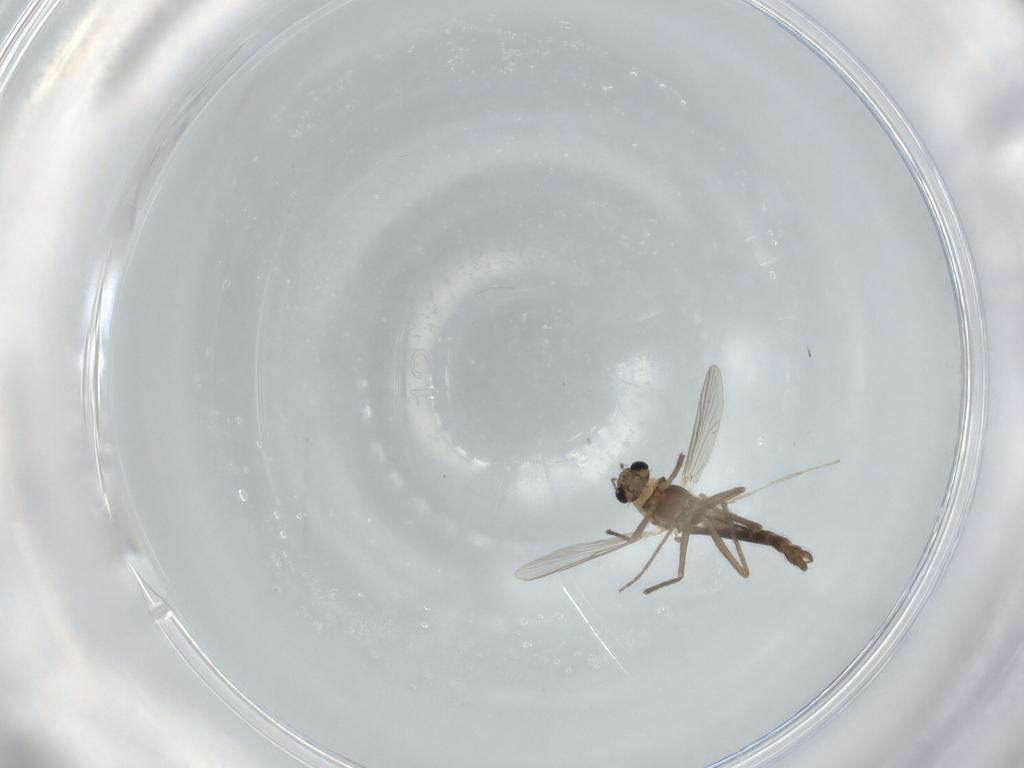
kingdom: Animalia
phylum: Arthropoda
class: Insecta
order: Diptera
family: Chironomidae
